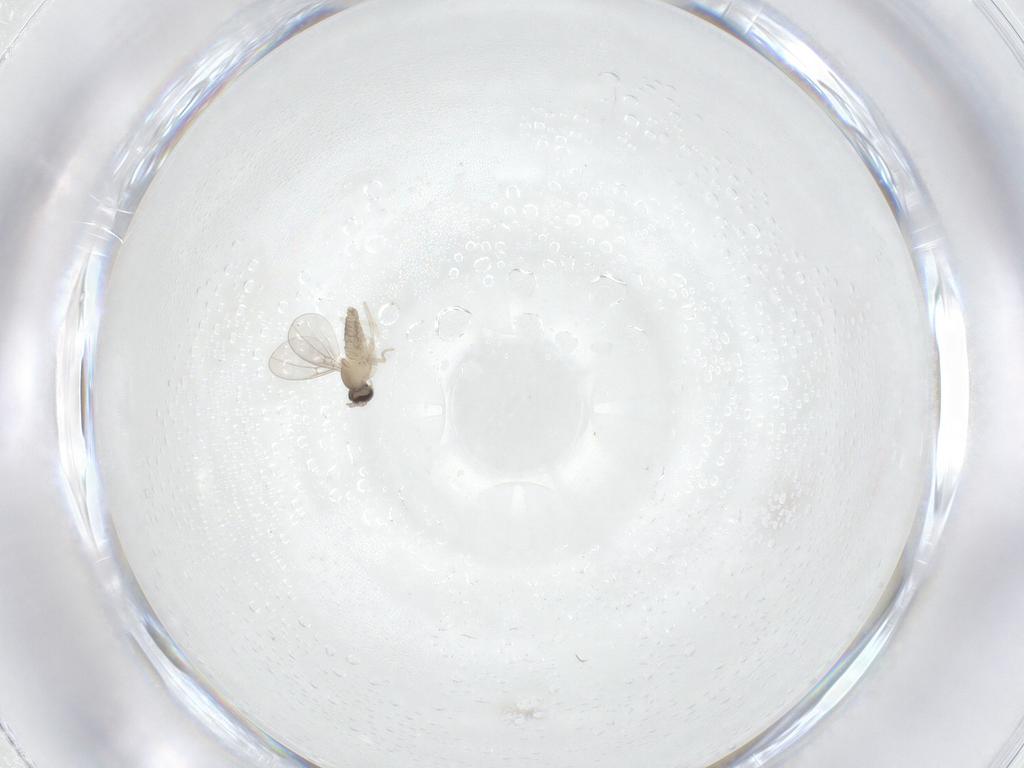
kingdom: Animalia
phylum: Arthropoda
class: Insecta
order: Diptera
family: Cecidomyiidae
